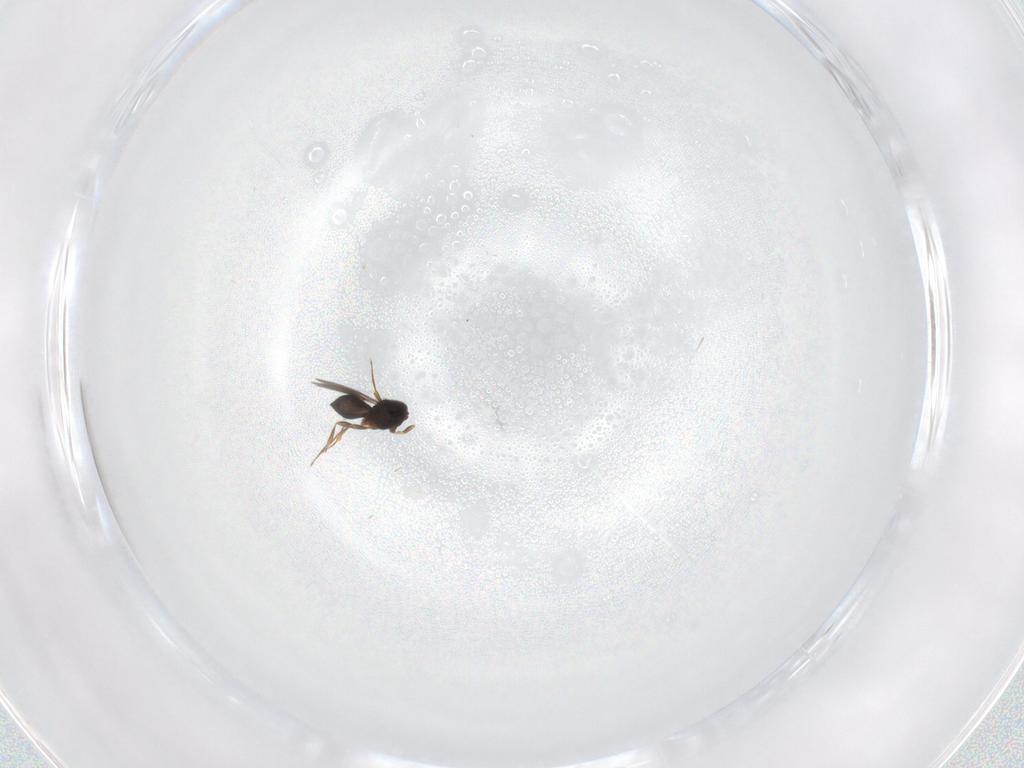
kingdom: Animalia
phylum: Arthropoda
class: Insecta
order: Hymenoptera
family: Scelionidae
